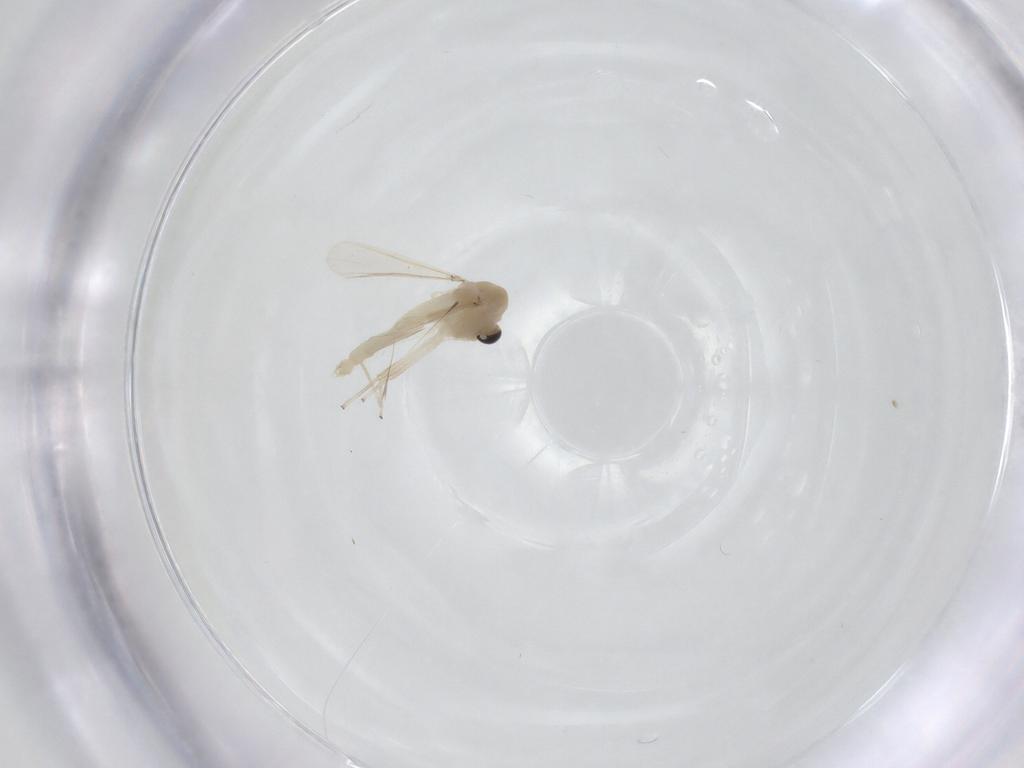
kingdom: Animalia
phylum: Arthropoda
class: Insecta
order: Diptera
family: Chironomidae
